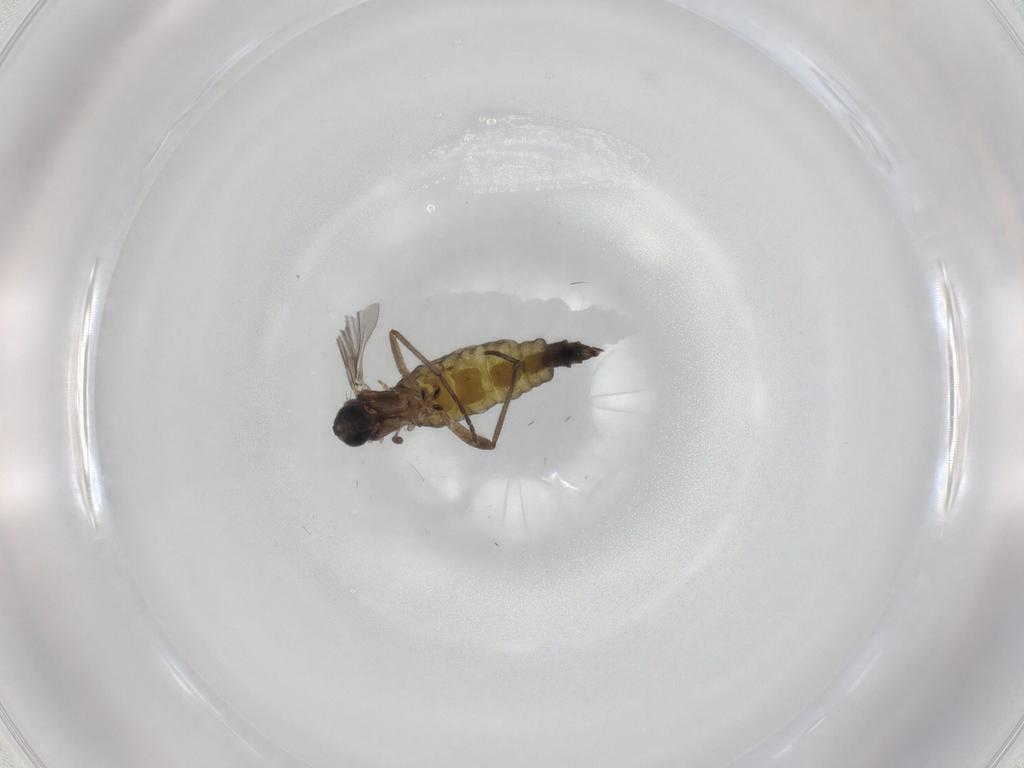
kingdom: Animalia
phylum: Arthropoda
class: Insecta
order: Diptera
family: Sciaridae
